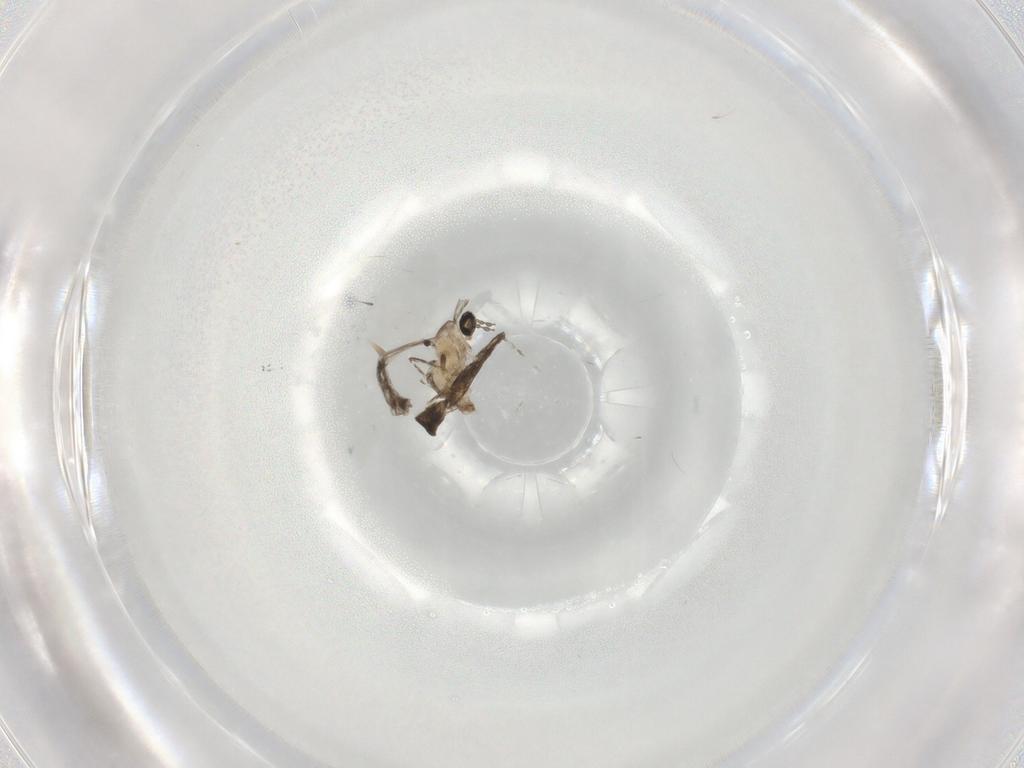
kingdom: Animalia
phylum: Arthropoda
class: Insecta
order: Diptera
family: Cecidomyiidae
